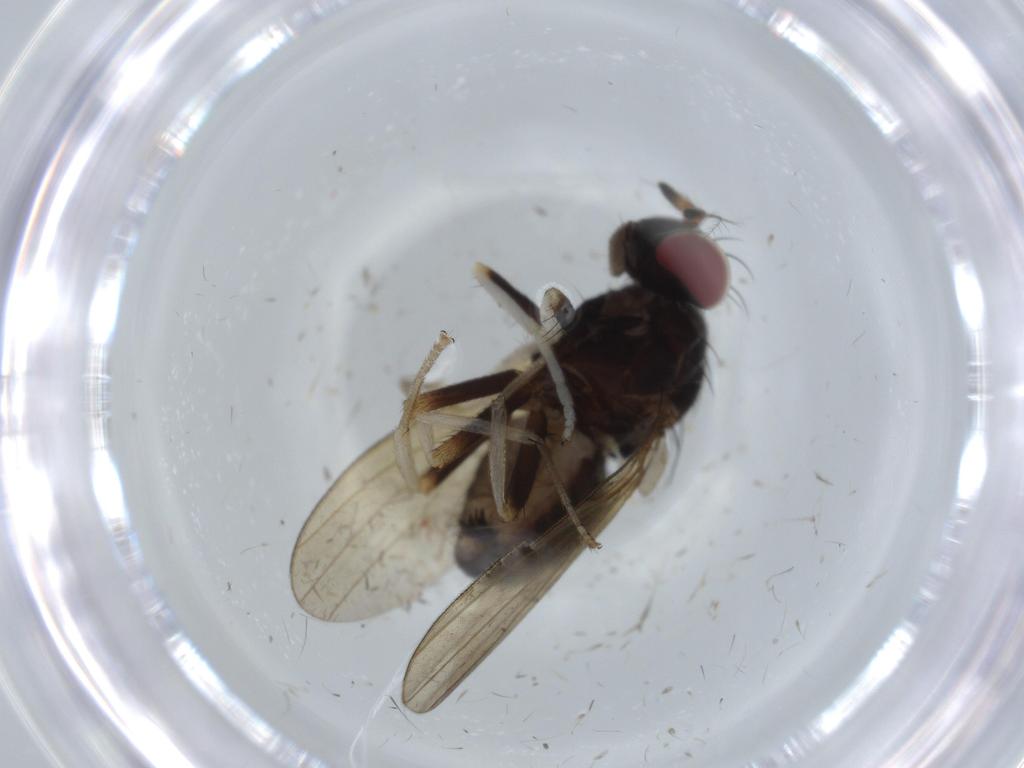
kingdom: Animalia
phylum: Arthropoda
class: Insecta
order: Diptera
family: Lauxaniidae
